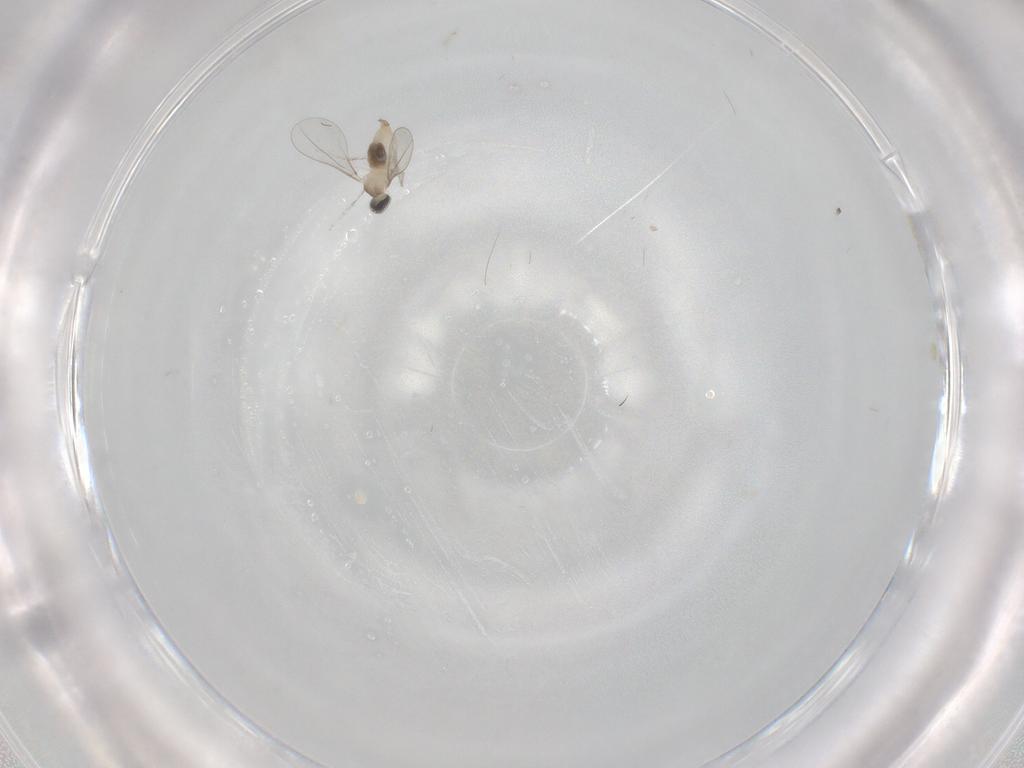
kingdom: Animalia
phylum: Arthropoda
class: Insecta
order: Diptera
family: Cecidomyiidae
